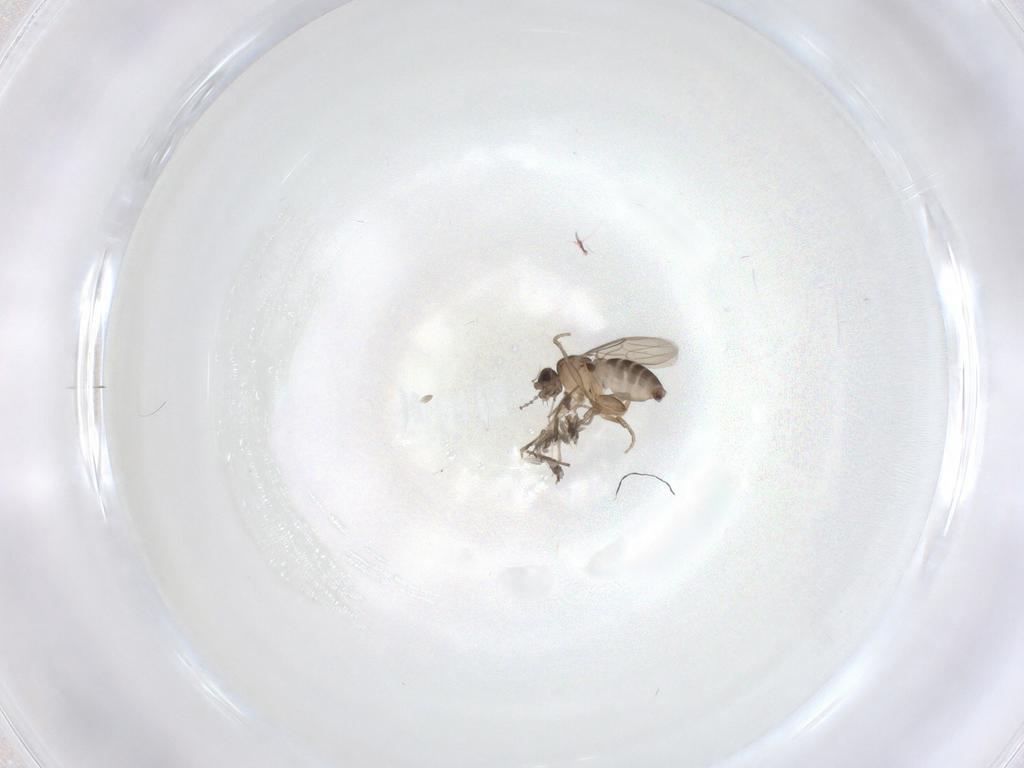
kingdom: Animalia
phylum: Arthropoda
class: Insecta
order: Diptera
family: Phoridae
